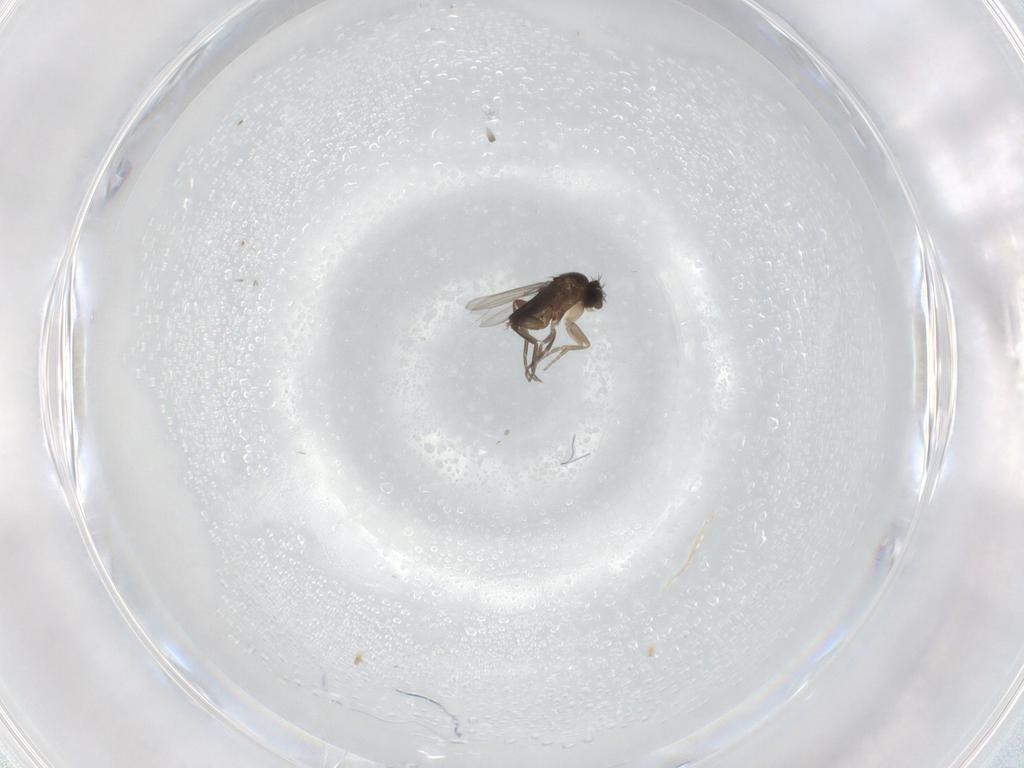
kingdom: Animalia
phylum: Arthropoda
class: Insecta
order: Diptera
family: Phoridae
